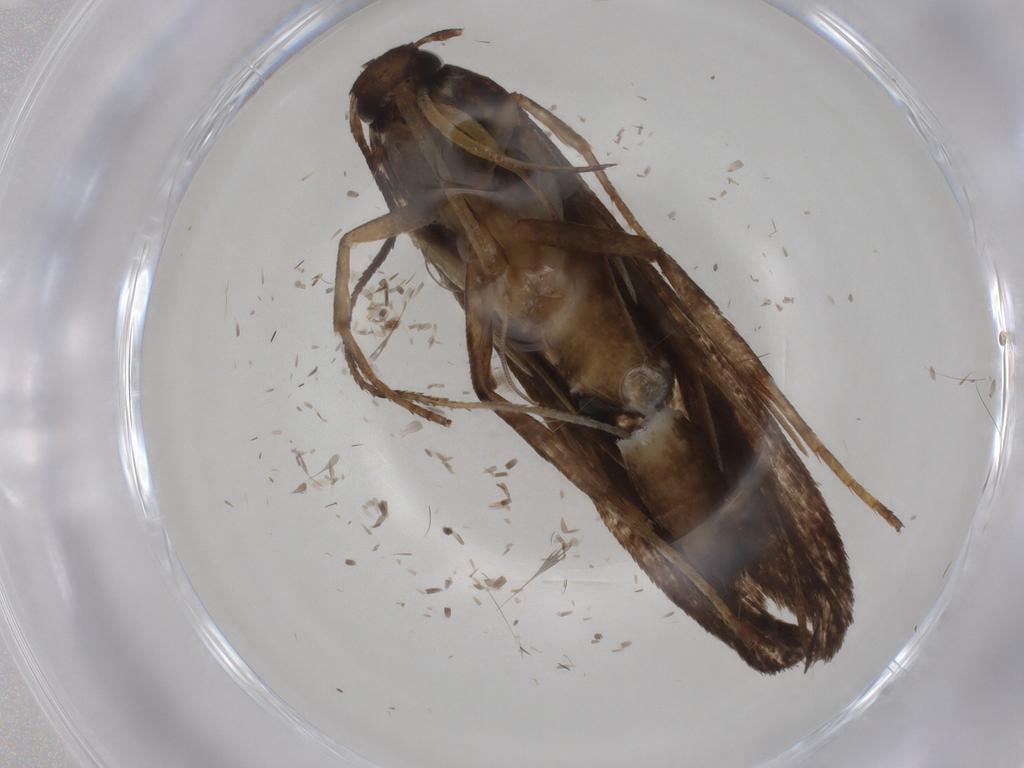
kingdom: Animalia
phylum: Arthropoda
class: Insecta
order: Lepidoptera
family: Gelechiidae
